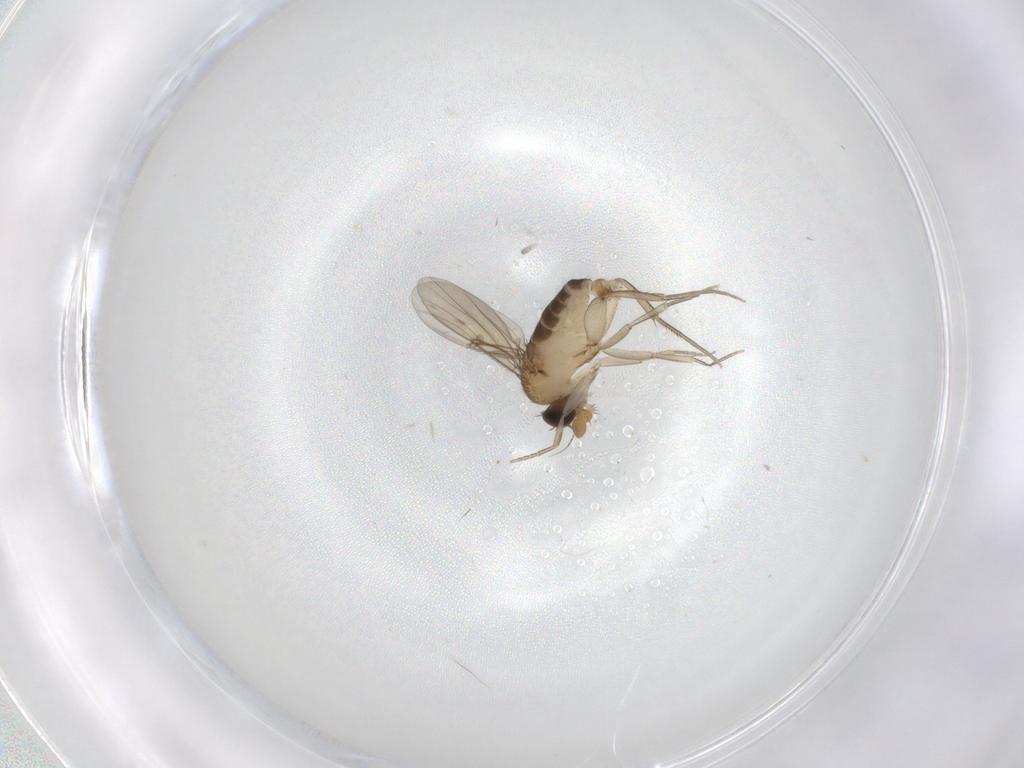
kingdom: Animalia
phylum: Arthropoda
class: Insecta
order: Diptera
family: Phoridae
